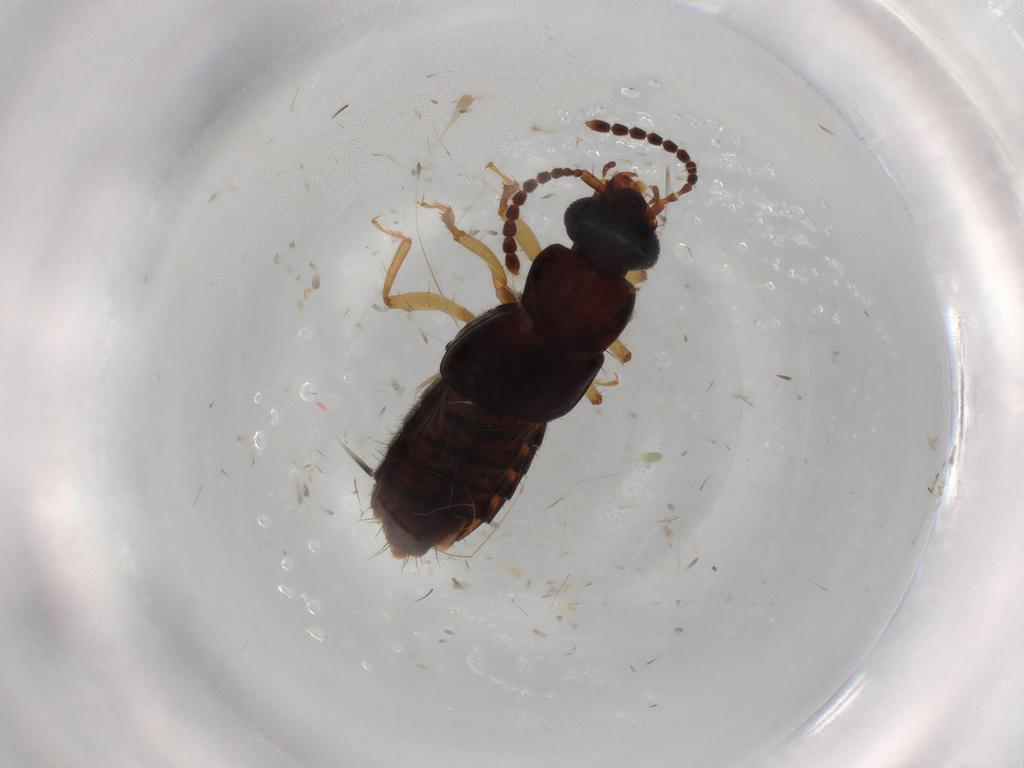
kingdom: Animalia
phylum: Arthropoda
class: Insecta
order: Coleoptera
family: Staphylinidae
